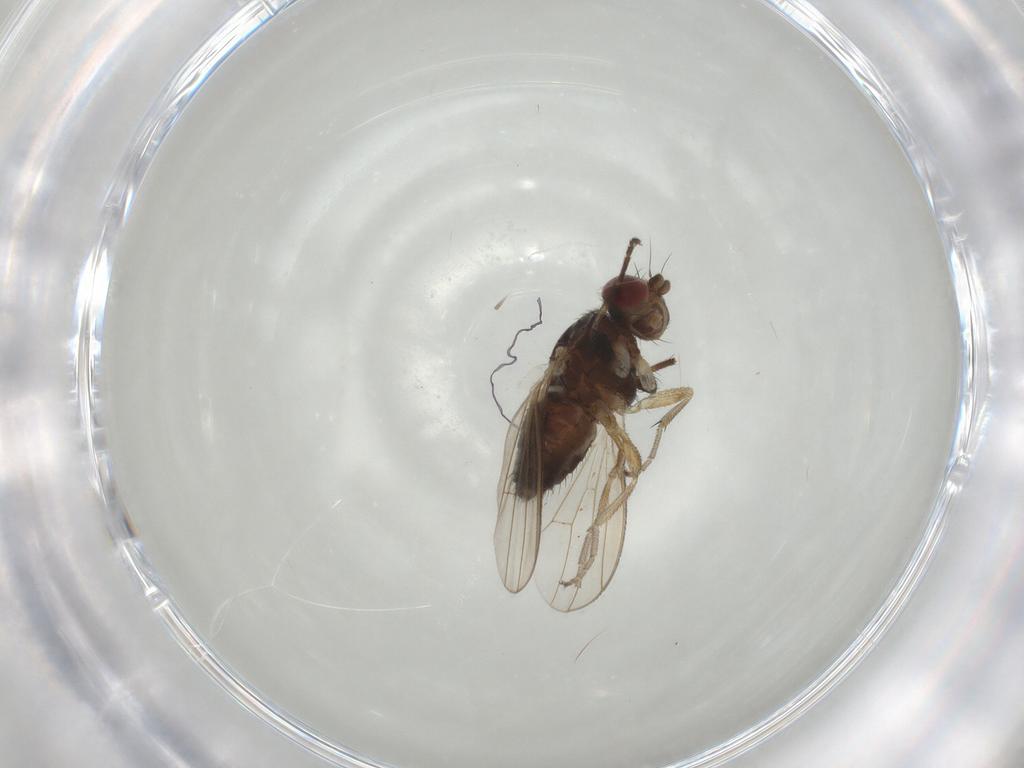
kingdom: Animalia
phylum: Arthropoda
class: Insecta
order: Diptera
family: Heleomyzidae
